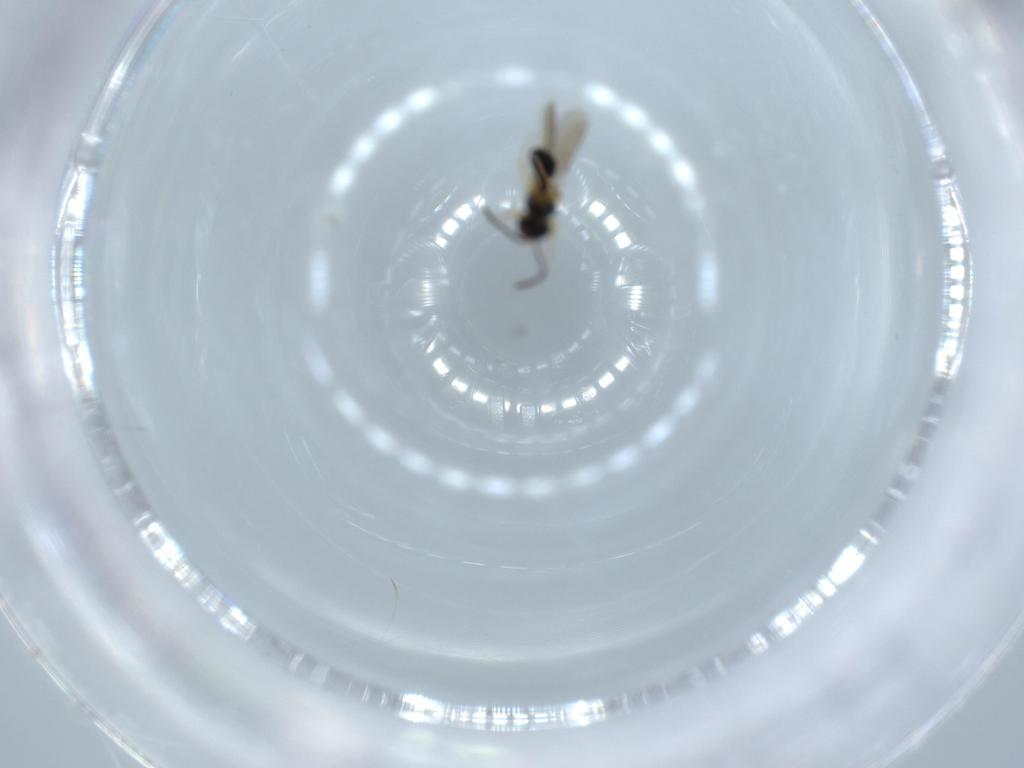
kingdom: Animalia
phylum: Arthropoda
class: Insecta
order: Hymenoptera
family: Scelionidae
